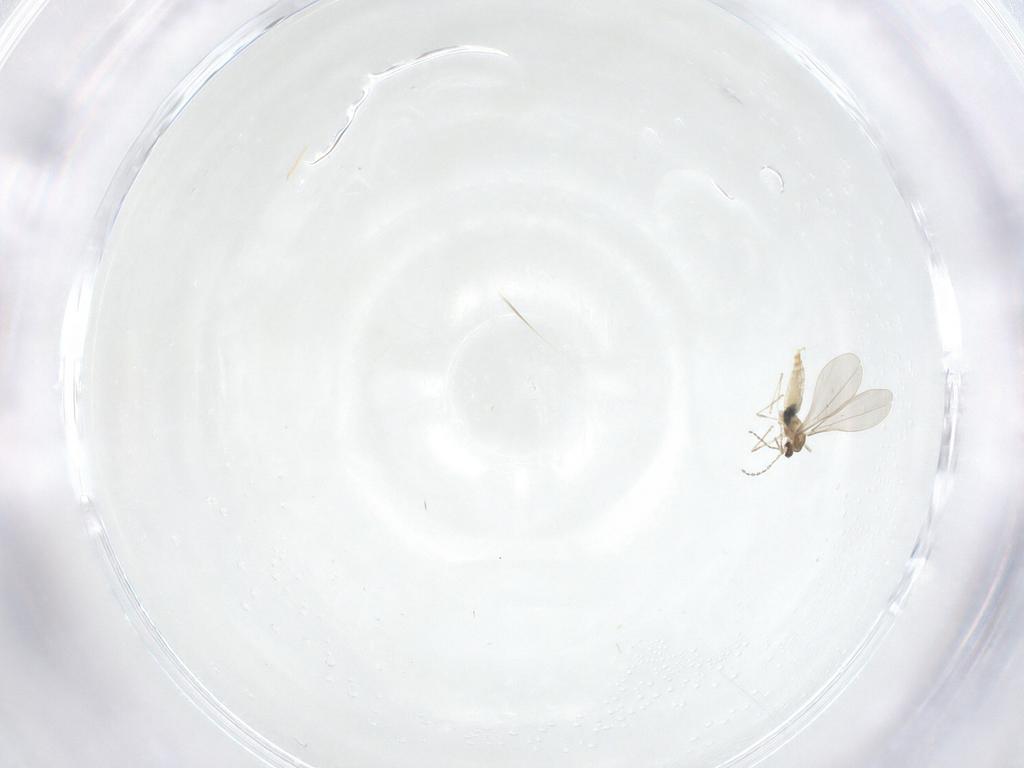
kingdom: Animalia
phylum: Arthropoda
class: Insecta
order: Diptera
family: Cecidomyiidae
